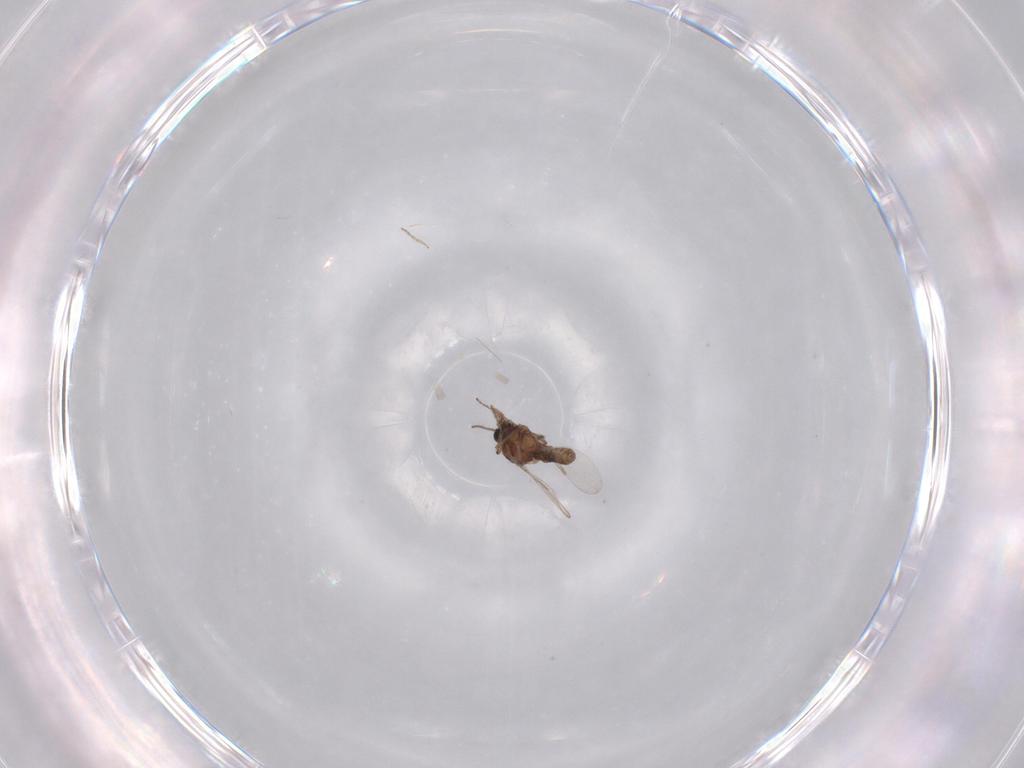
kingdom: Animalia
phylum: Arthropoda
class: Insecta
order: Diptera
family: Ceratopogonidae
